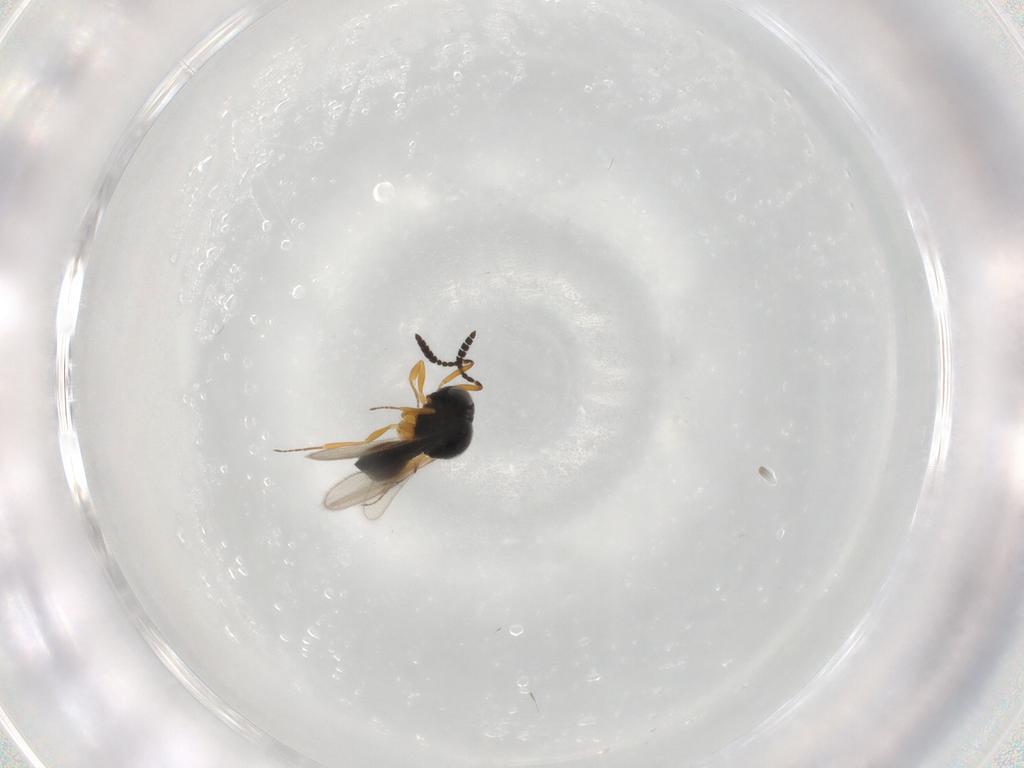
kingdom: Animalia
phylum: Arthropoda
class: Insecta
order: Hymenoptera
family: Scelionidae
